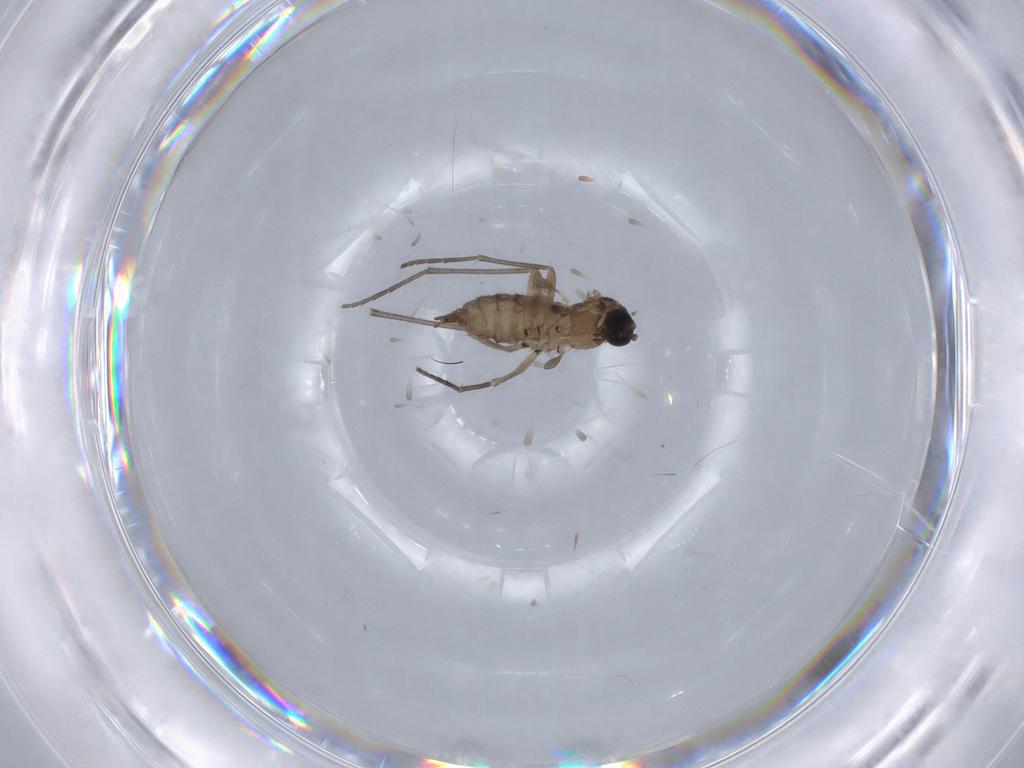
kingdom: Animalia
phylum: Arthropoda
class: Insecta
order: Diptera
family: Sciaridae
